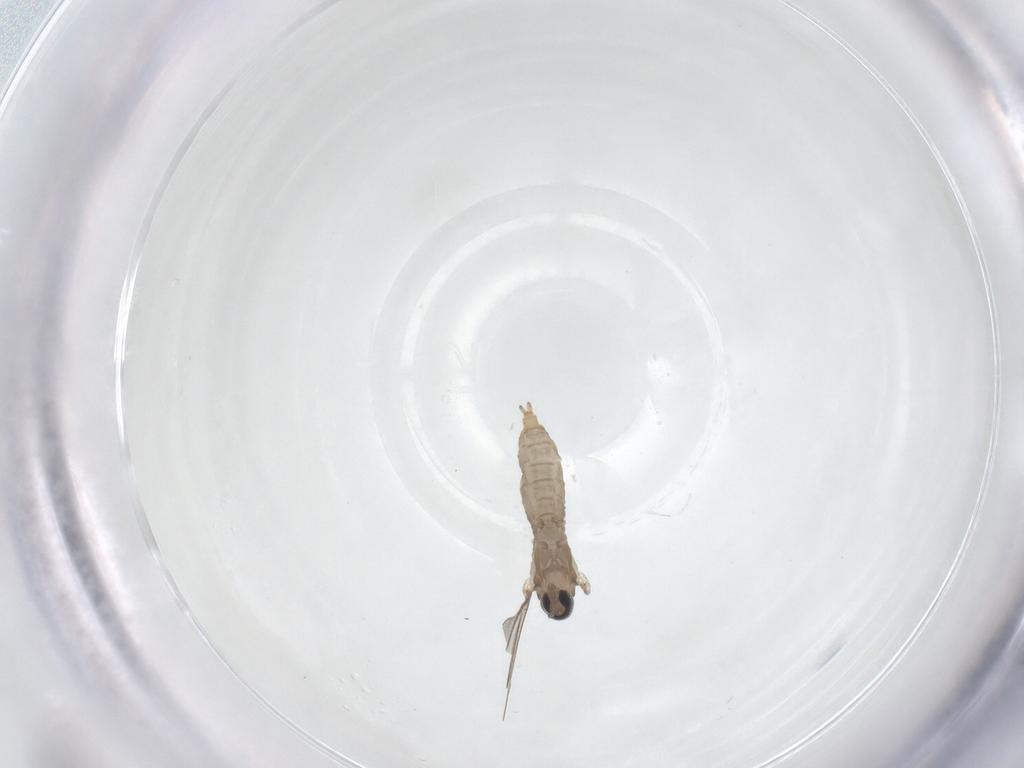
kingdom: Animalia
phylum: Arthropoda
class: Insecta
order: Diptera
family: Cecidomyiidae
